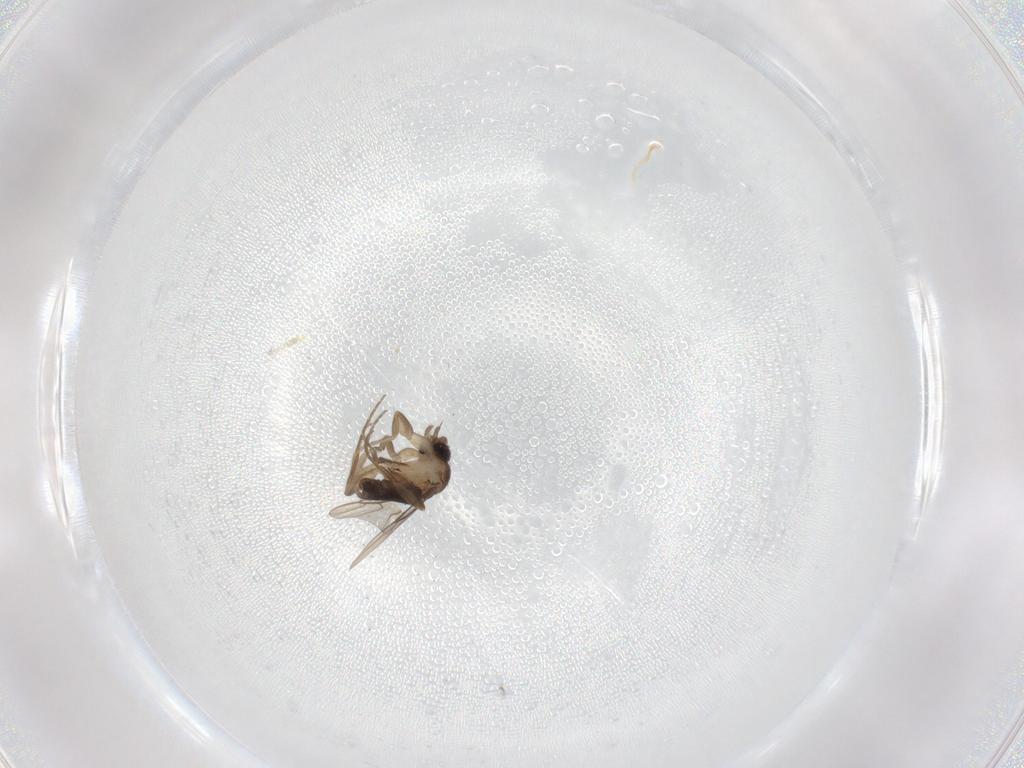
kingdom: Animalia
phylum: Arthropoda
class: Insecta
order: Diptera
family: Phoridae
